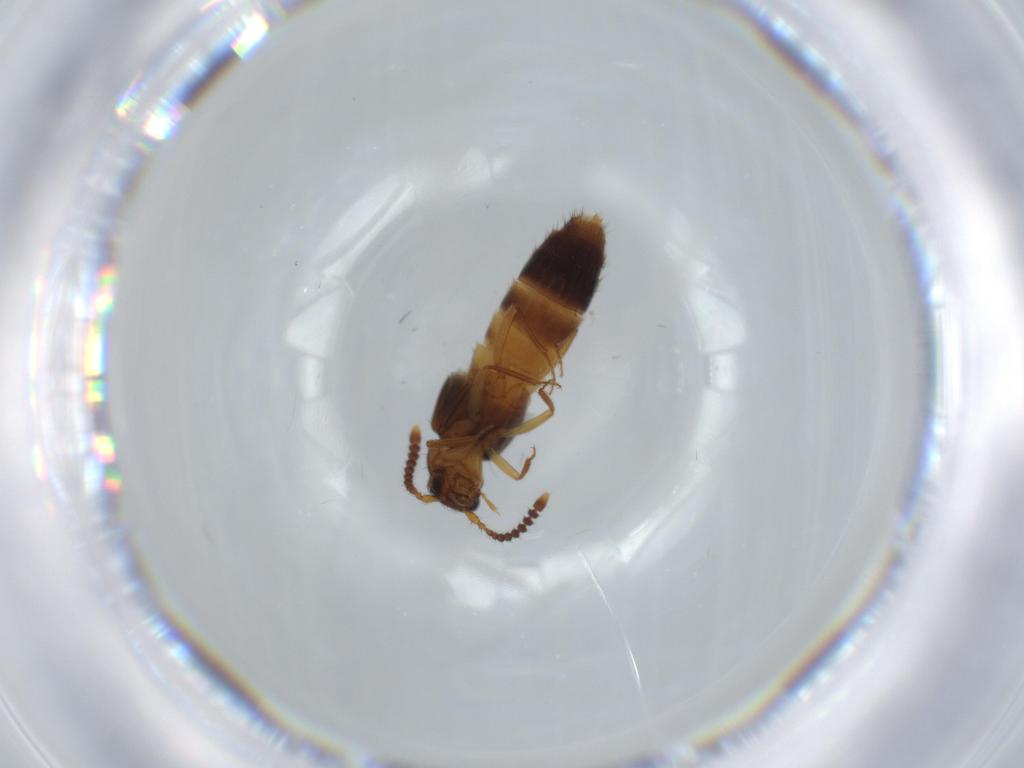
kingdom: Animalia
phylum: Arthropoda
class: Insecta
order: Coleoptera
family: Staphylinidae
